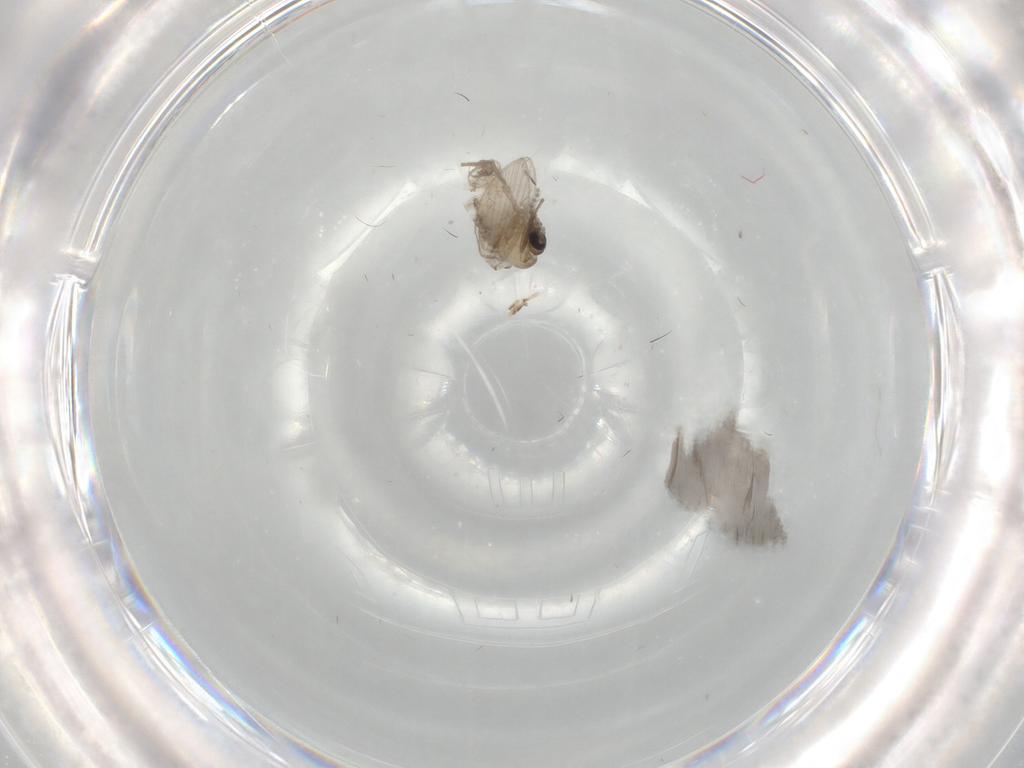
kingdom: Animalia
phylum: Arthropoda
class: Insecta
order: Diptera
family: Psychodidae
